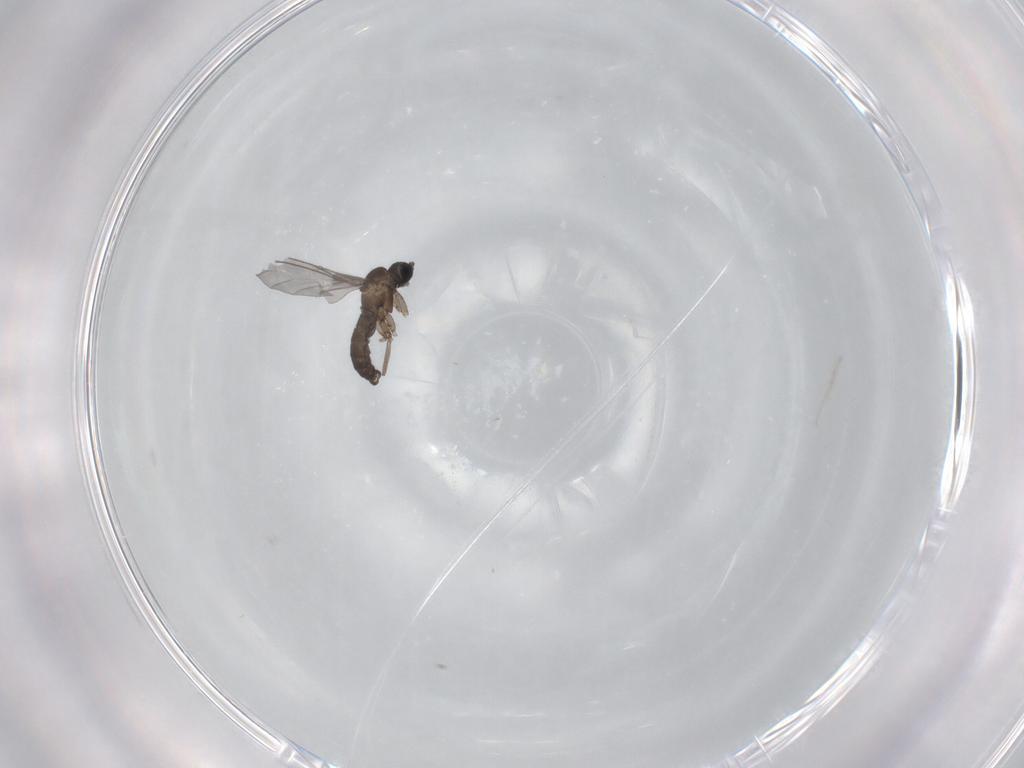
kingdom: Animalia
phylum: Arthropoda
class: Insecta
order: Diptera
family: Sciaridae
